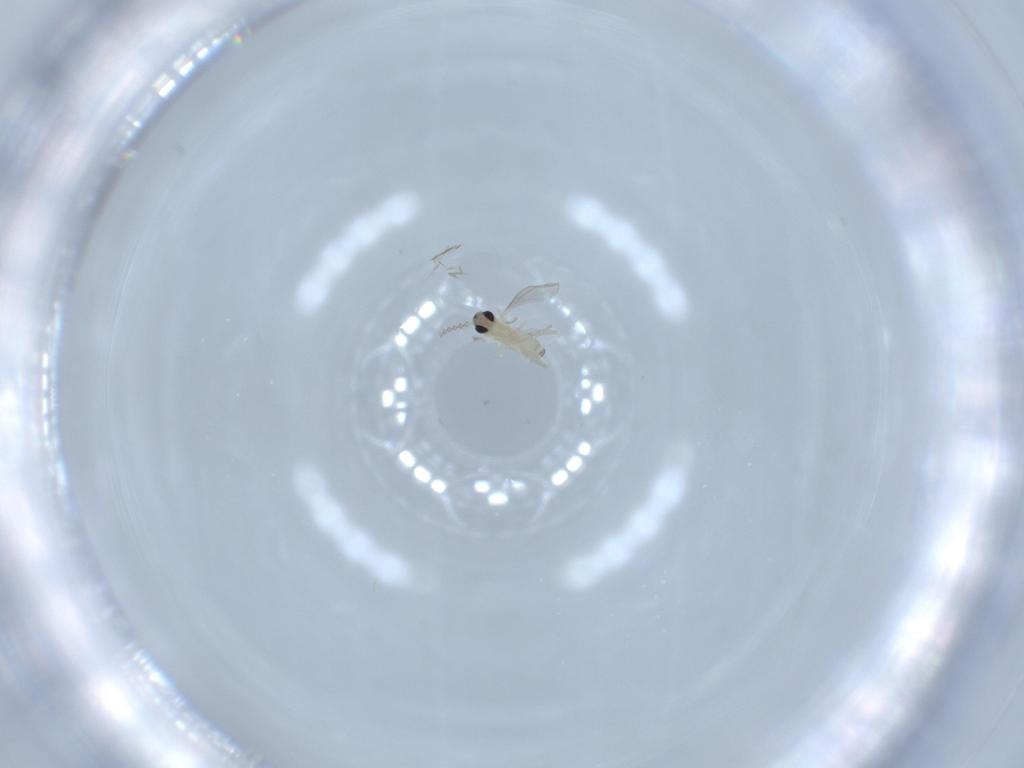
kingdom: Animalia
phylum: Arthropoda
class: Insecta
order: Diptera
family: Cecidomyiidae
